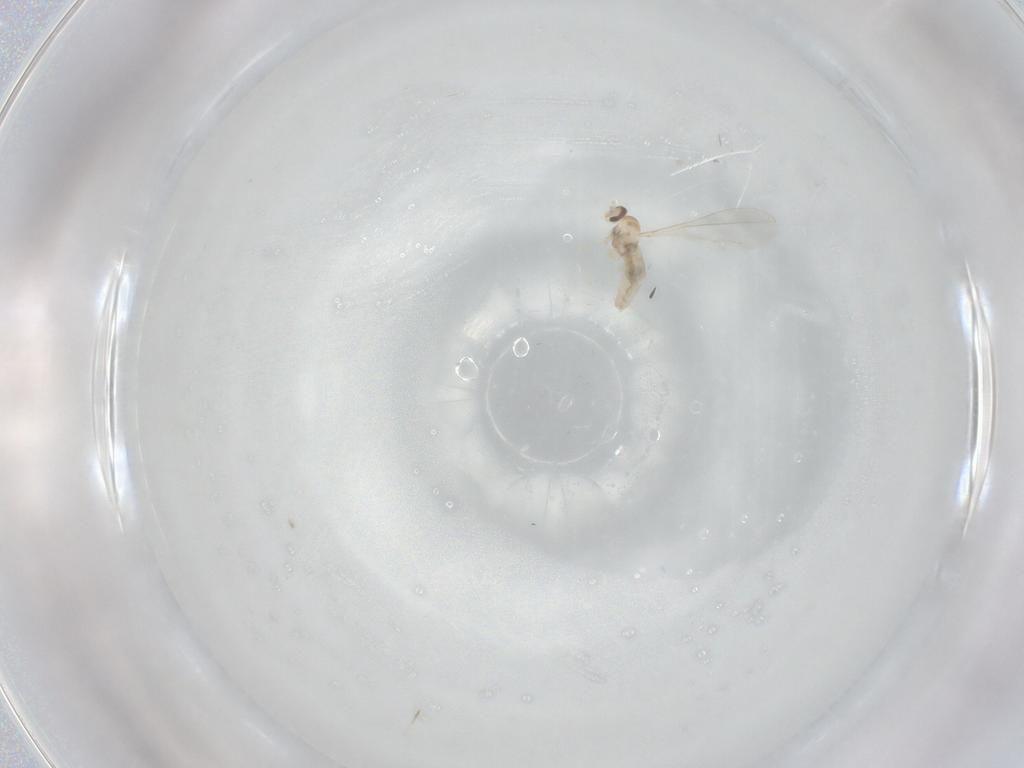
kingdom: Animalia
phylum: Arthropoda
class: Insecta
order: Diptera
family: Cecidomyiidae
